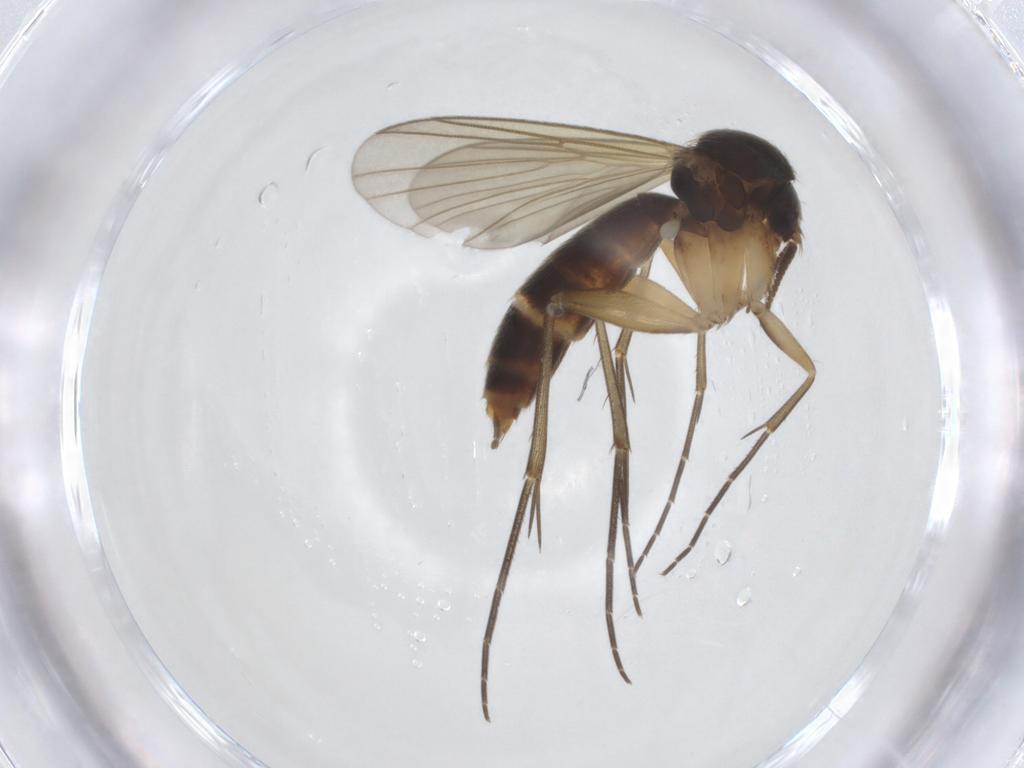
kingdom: Animalia
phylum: Arthropoda
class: Insecta
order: Diptera
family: Mycetophilidae
